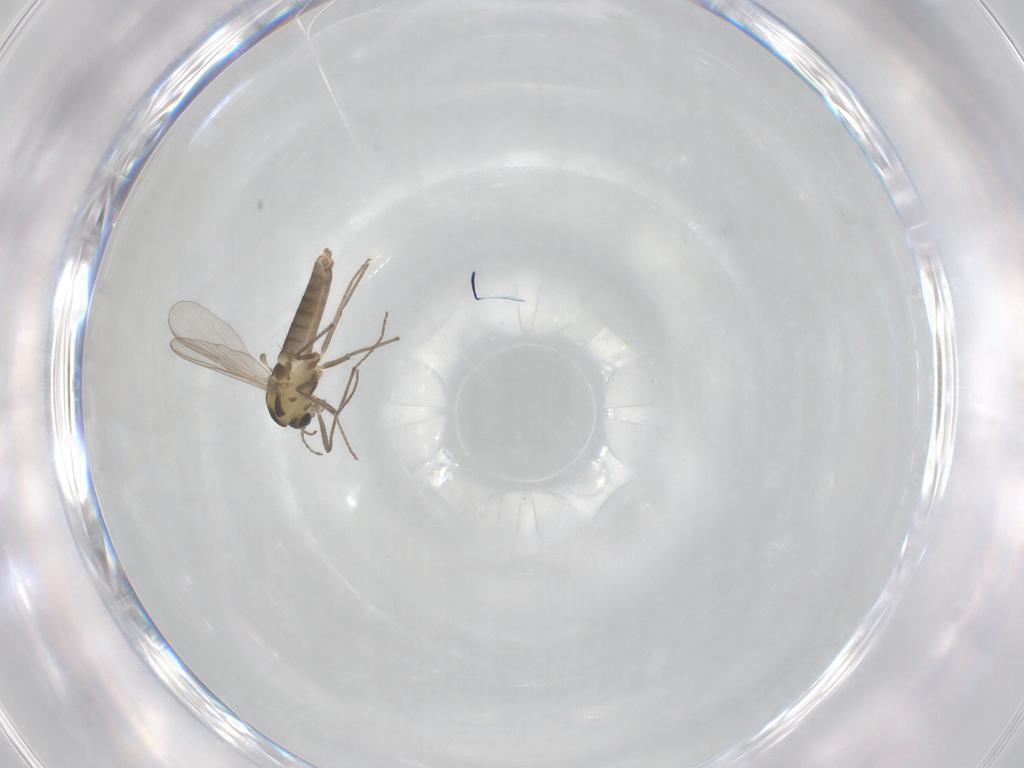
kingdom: Animalia
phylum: Arthropoda
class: Insecta
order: Diptera
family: Chironomidae
